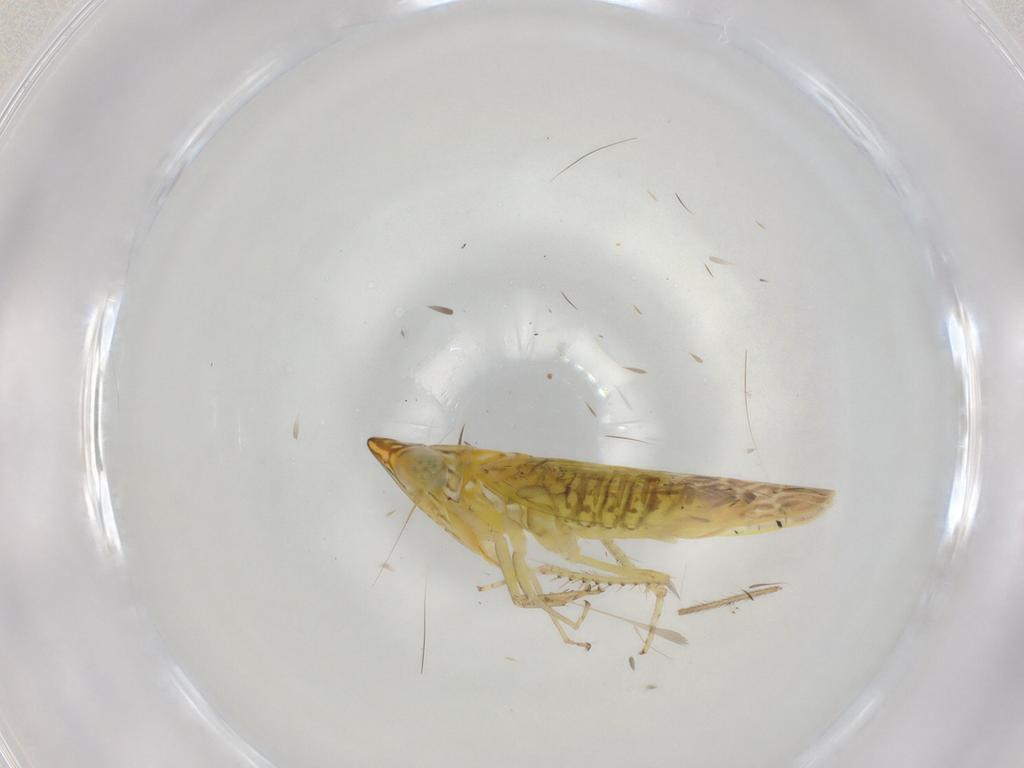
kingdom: Animalia
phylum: Arthropoda
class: Insecta
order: Hemiptera
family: Cicadellidae
